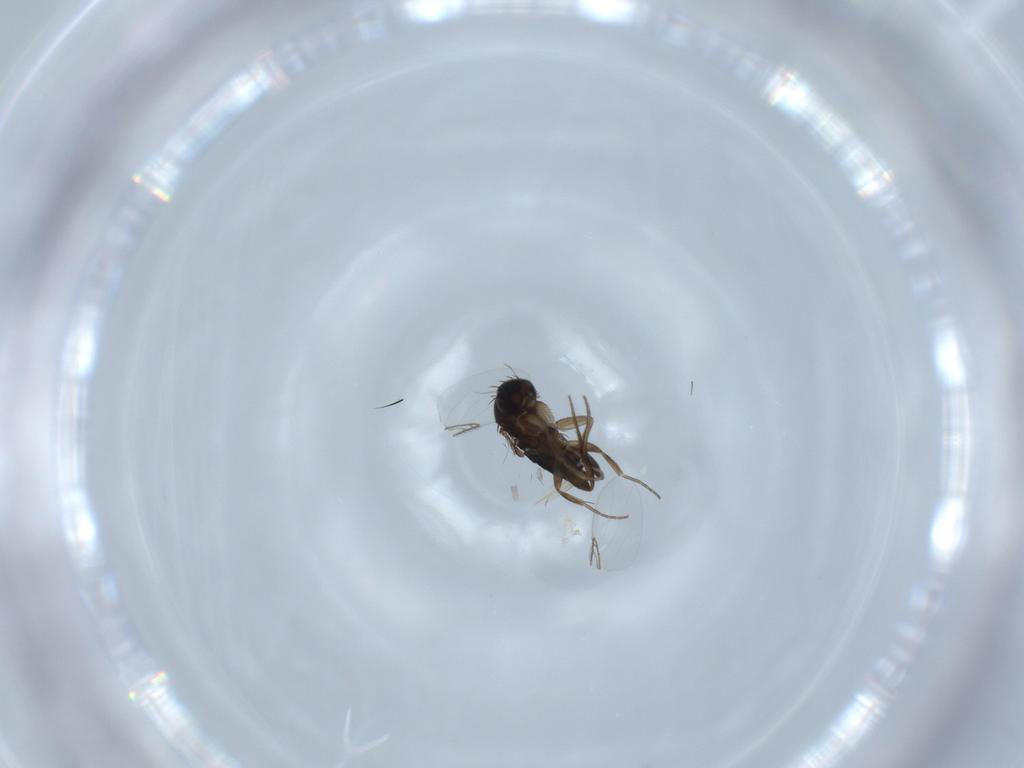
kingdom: Animalia
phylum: Arthropoda
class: Insecta
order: Diptera
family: Phoridae
